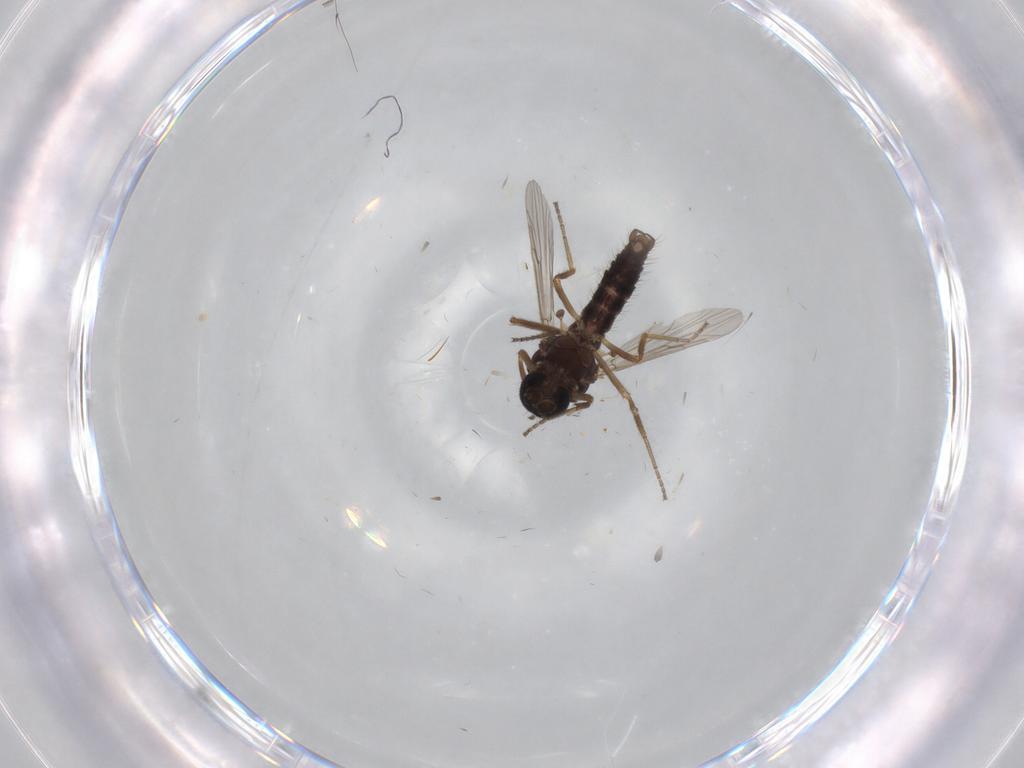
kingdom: Animalia
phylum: Arthropoda
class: Insecta
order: Diptera
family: Ceratopogonidae
